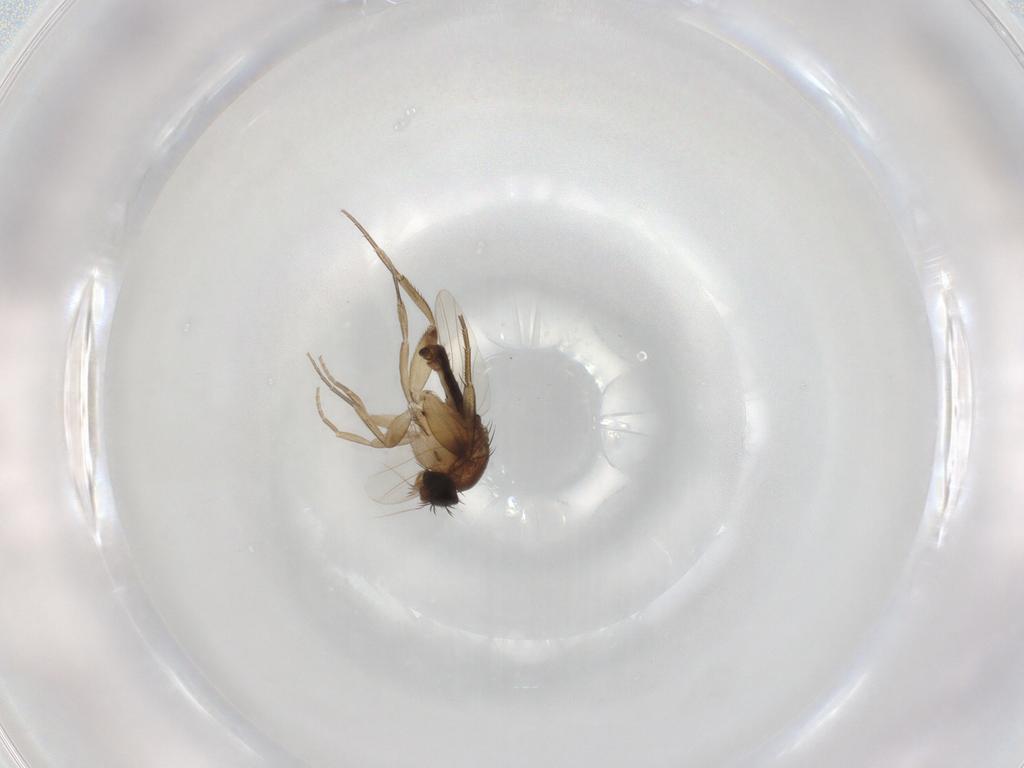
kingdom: Animalia
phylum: Arthropoda
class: Insecta
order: Diptera
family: Phoridae
